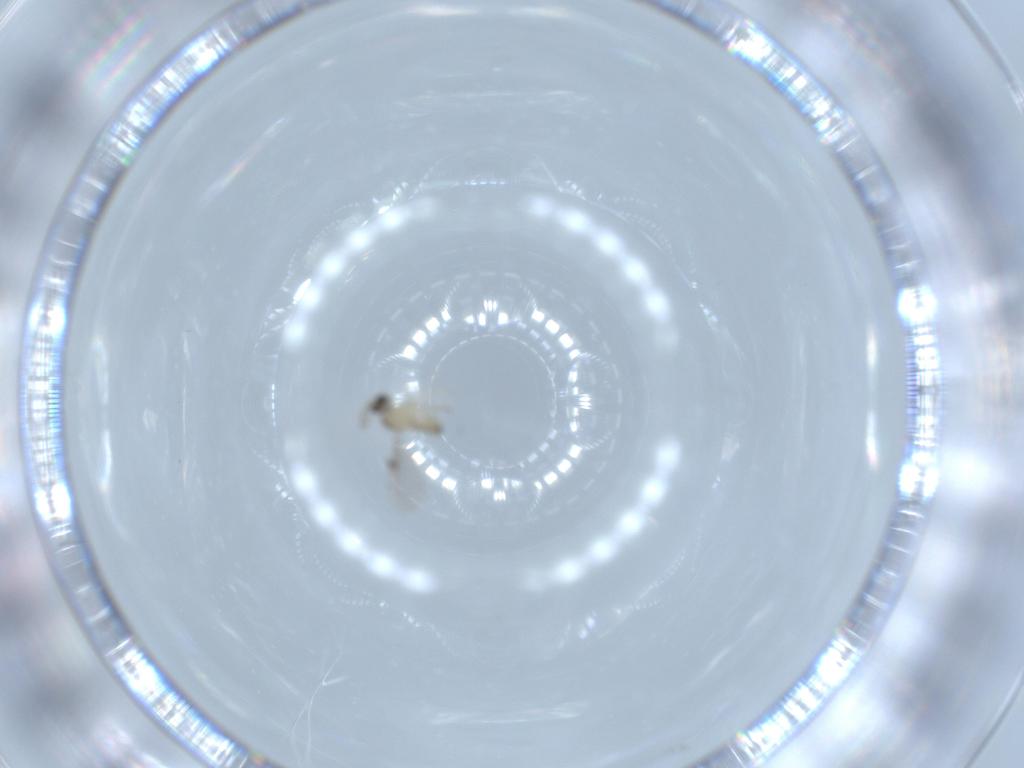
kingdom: Animalia
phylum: Arthropoda
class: Insecta
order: Diptera
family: Cecidomyiidae
